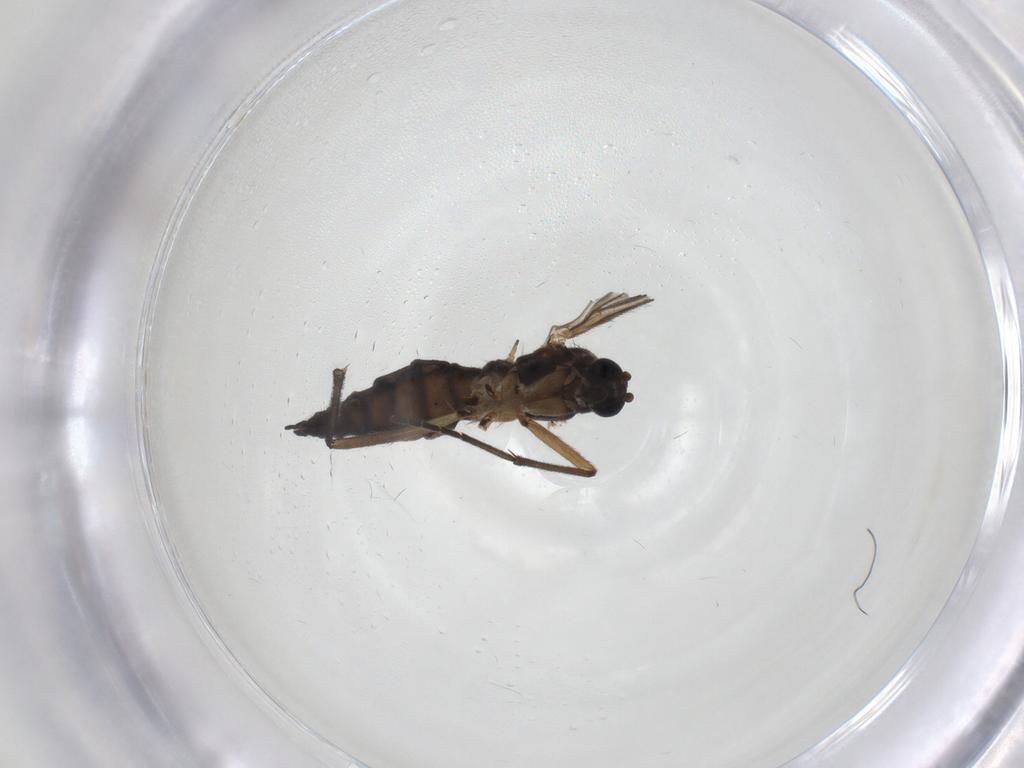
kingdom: Animalia
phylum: Arthropoda
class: Insecta
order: Diptera
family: Sciaridae
